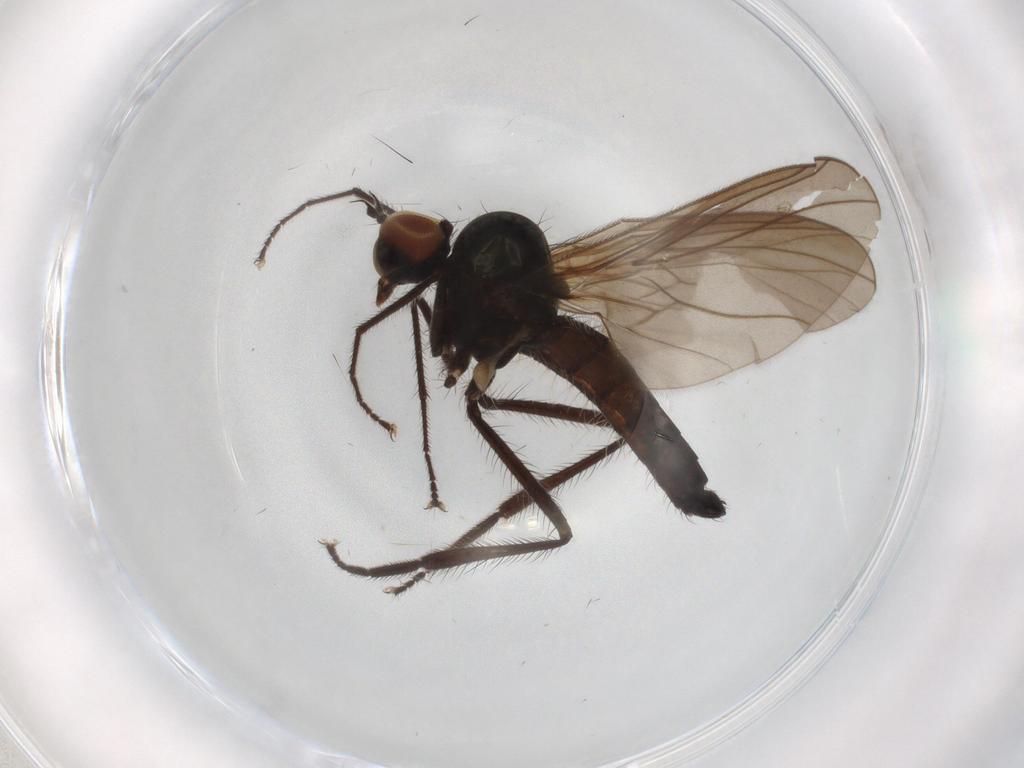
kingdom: Animalia
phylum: Arthropoda
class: Insecta
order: Diptera
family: Hybotidae
